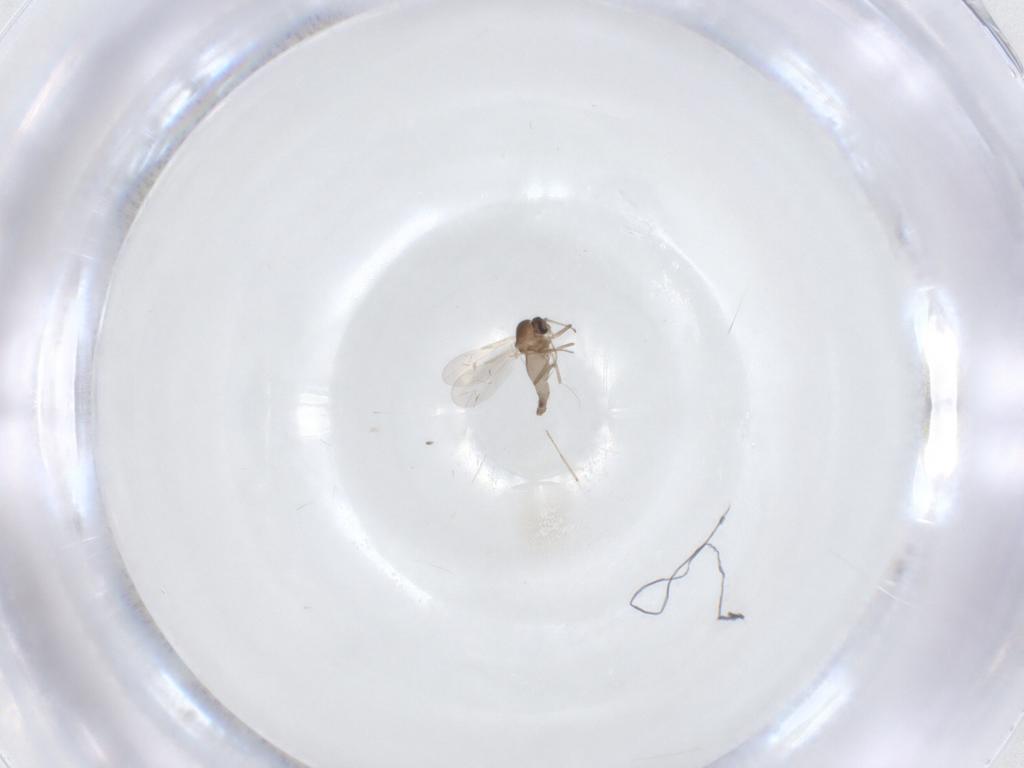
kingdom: Animalia
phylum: Arthropoda
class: Insecta
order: Diptera
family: Ceratopogonidae
